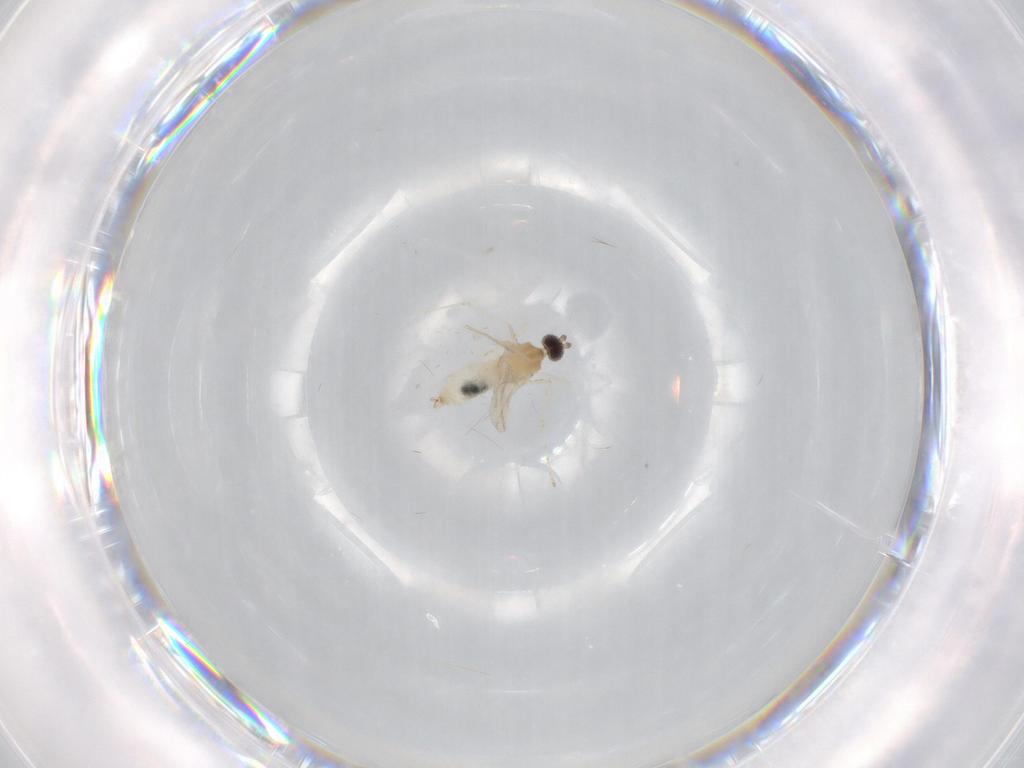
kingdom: Animalia
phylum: Arthropoda
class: Insecta
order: Diptera
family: Cecidomyiidae
